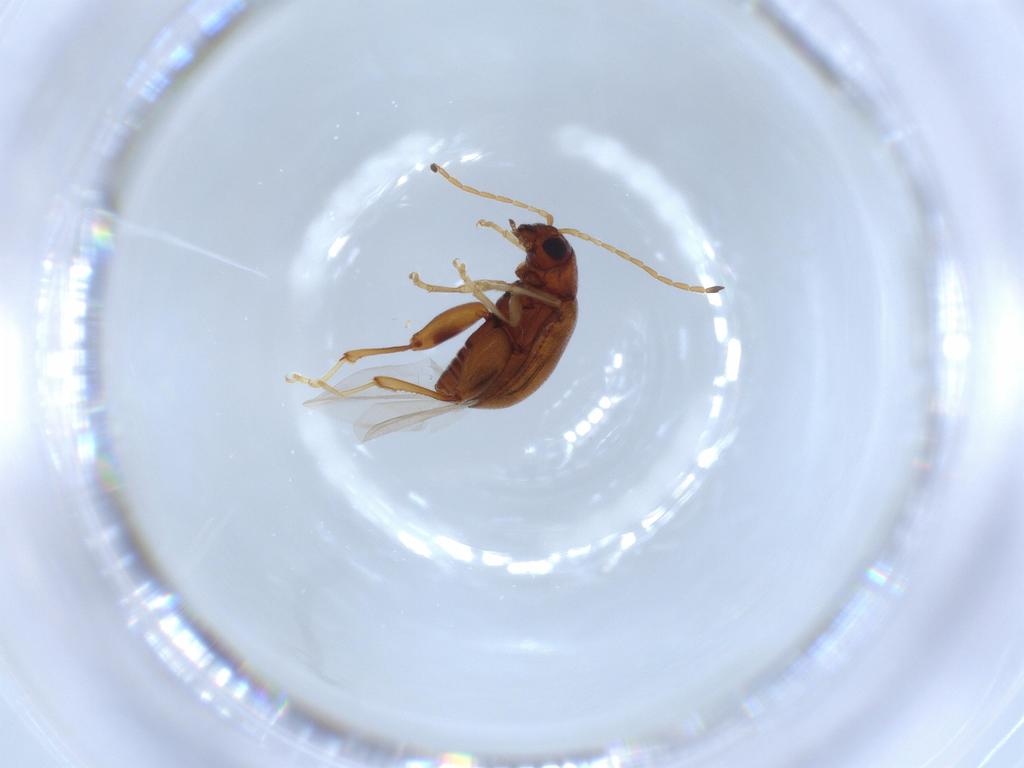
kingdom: Animalia
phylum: Arthropoda
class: Insecta
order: Coleoptera
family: Chrysomelidae
